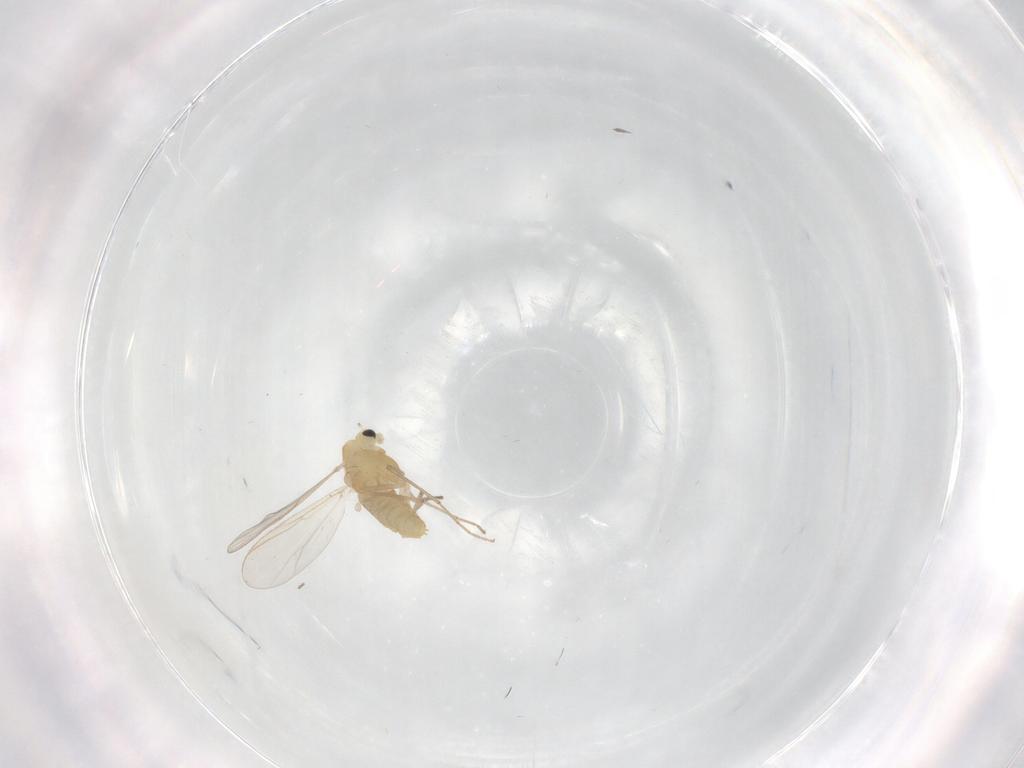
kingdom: Animalia
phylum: Arthropoda
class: Insecta
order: Diptera
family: Chironomidae
